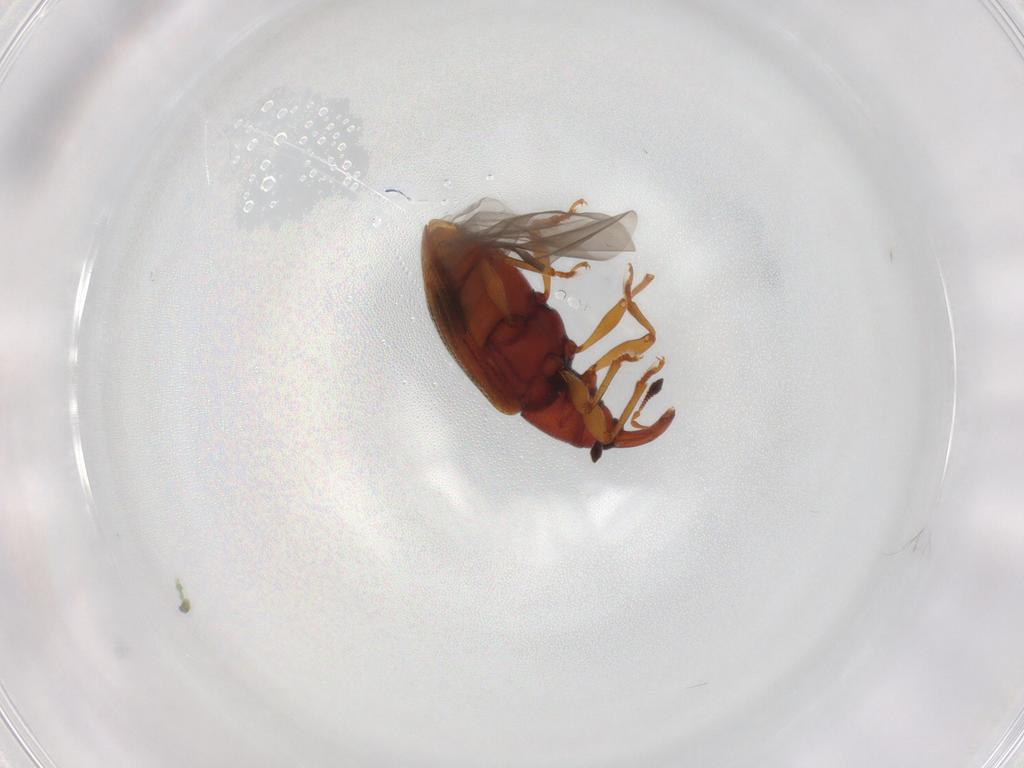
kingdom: Animalia
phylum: Arthropoda
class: Insecta
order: Coleoptera
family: Curculionidae
